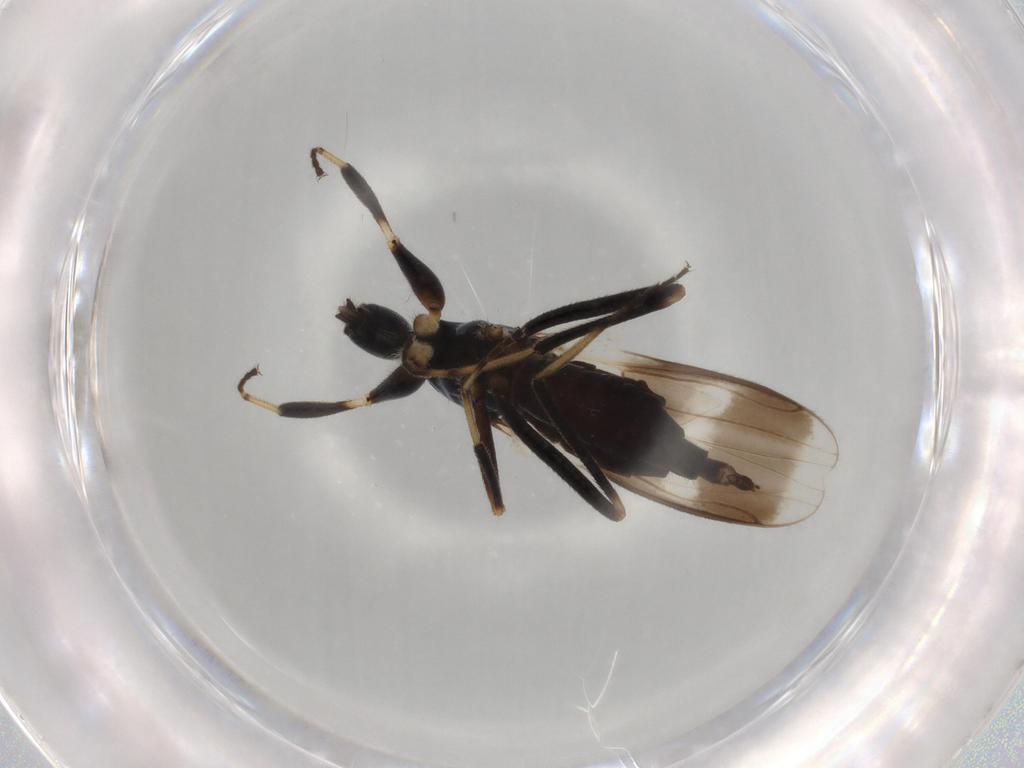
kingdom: Animalia
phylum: Arthropoda
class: Insecta
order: Diptera
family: Hybotidae
